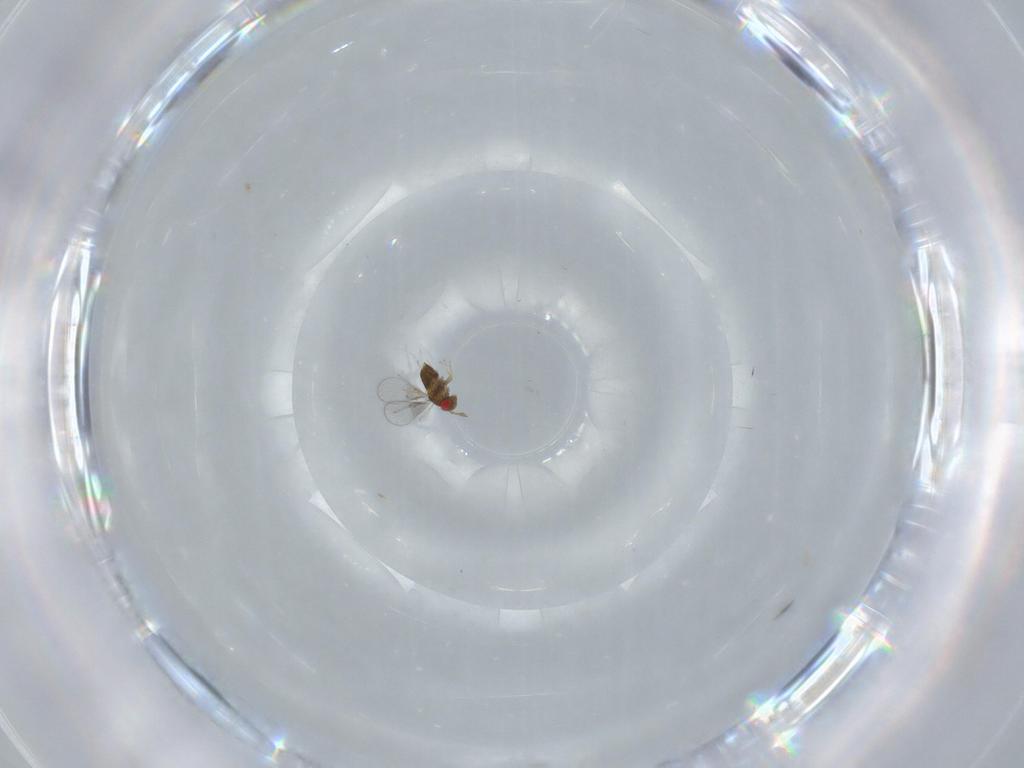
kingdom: Animalia
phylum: Arthropoda
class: Insecta
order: Hymenoptera
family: Trichogrammatidae
